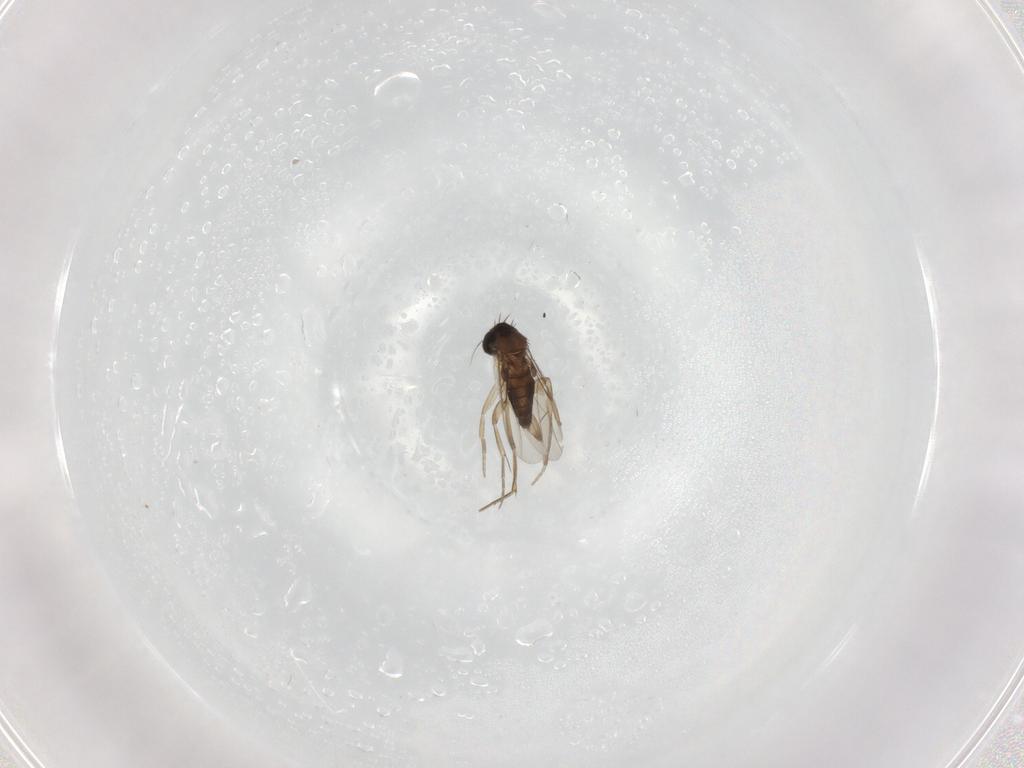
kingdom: Animalia
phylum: Arthropoda
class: Insecta
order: Diptera
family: Phoridae
